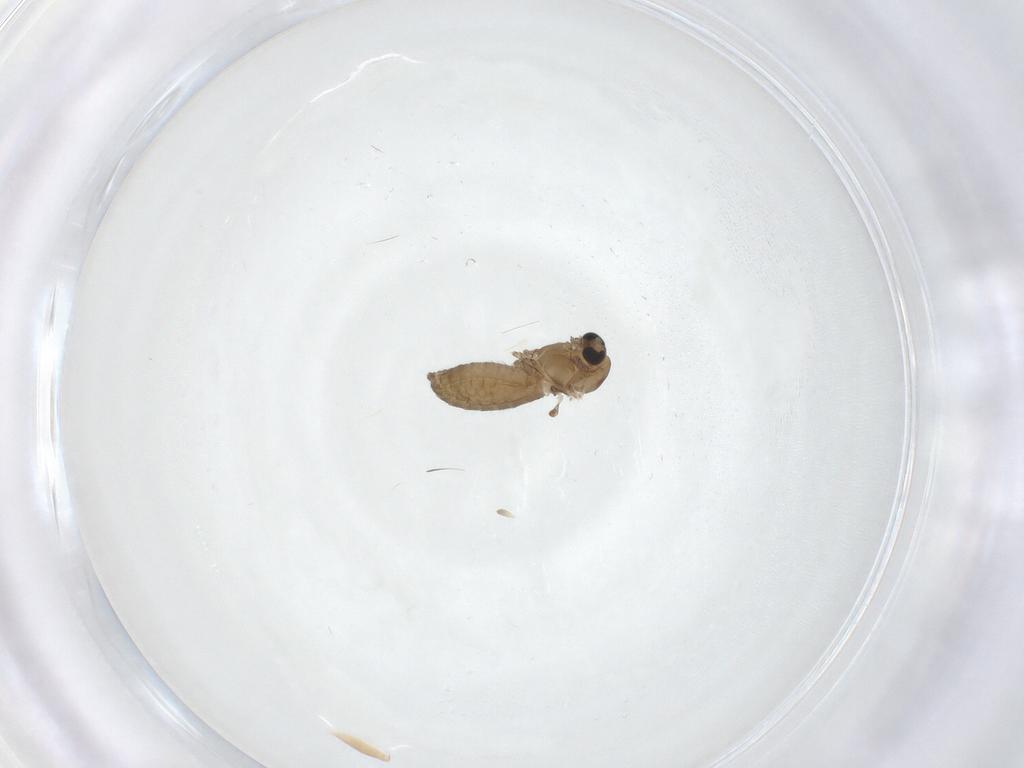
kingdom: Animalia
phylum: Arthropoda
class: Insecta
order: Diptera
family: Chironomidae
